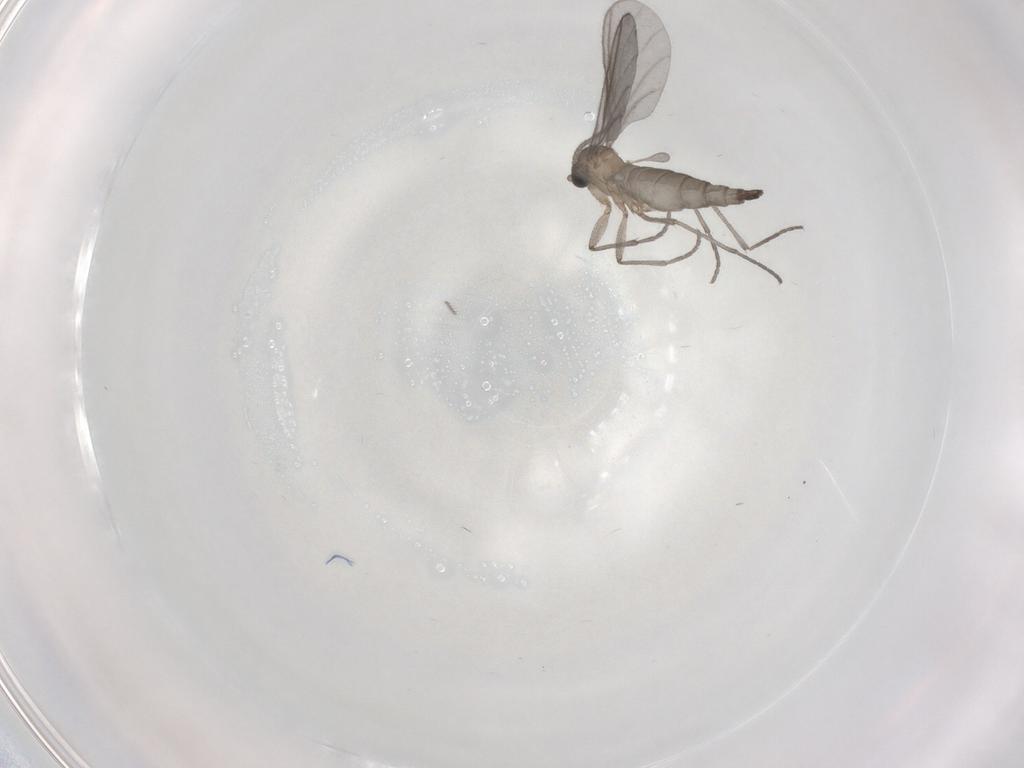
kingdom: Animalia
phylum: Arthropoda
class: Insecta
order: Diptera
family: Sciaridae
